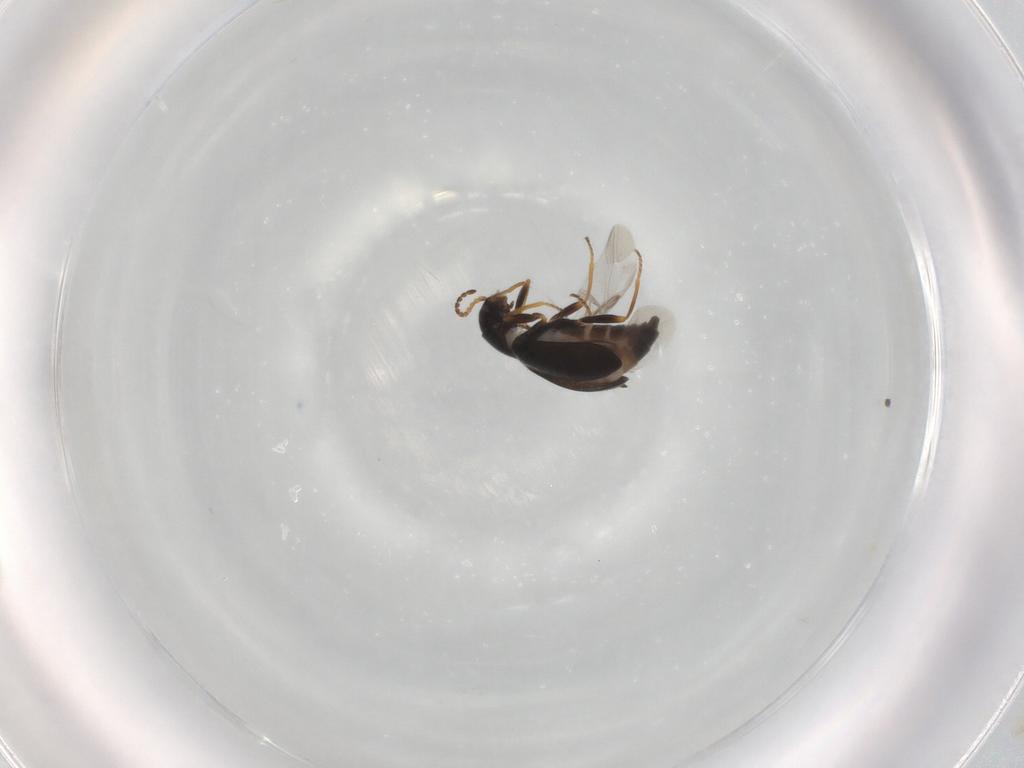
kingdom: Animalia
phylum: Arthropoda
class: Insecta
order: Coleoptera
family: Melyridae
